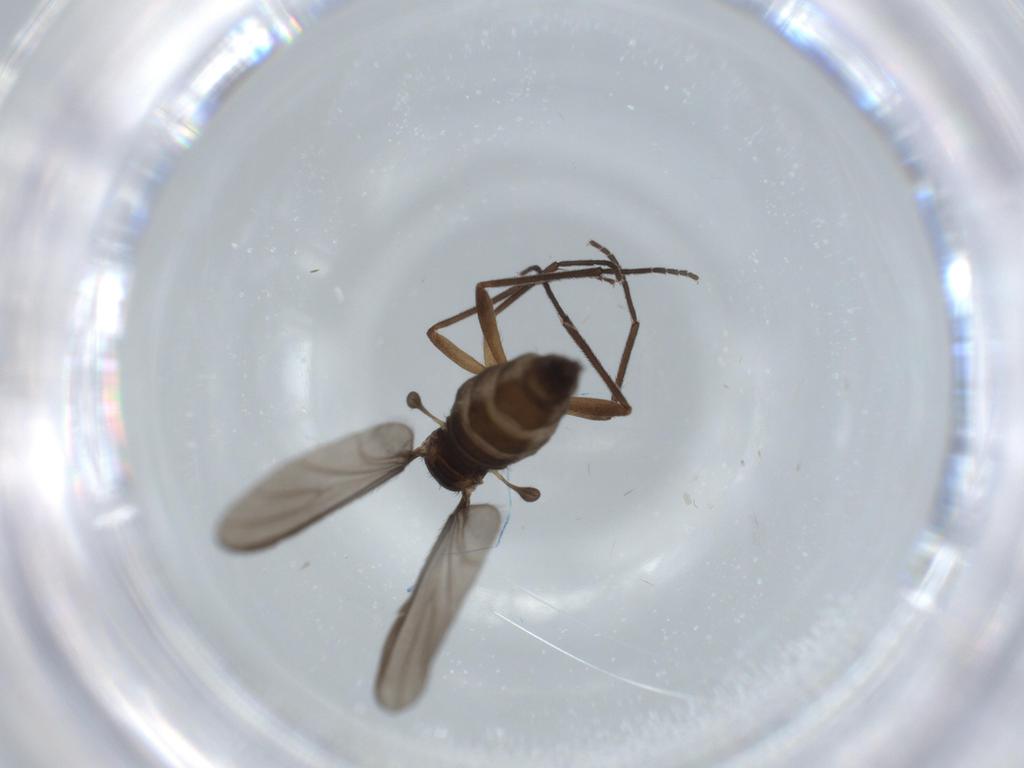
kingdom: Animalia
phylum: Arthropoda
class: Insecta
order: Diptera
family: Sciaridae
